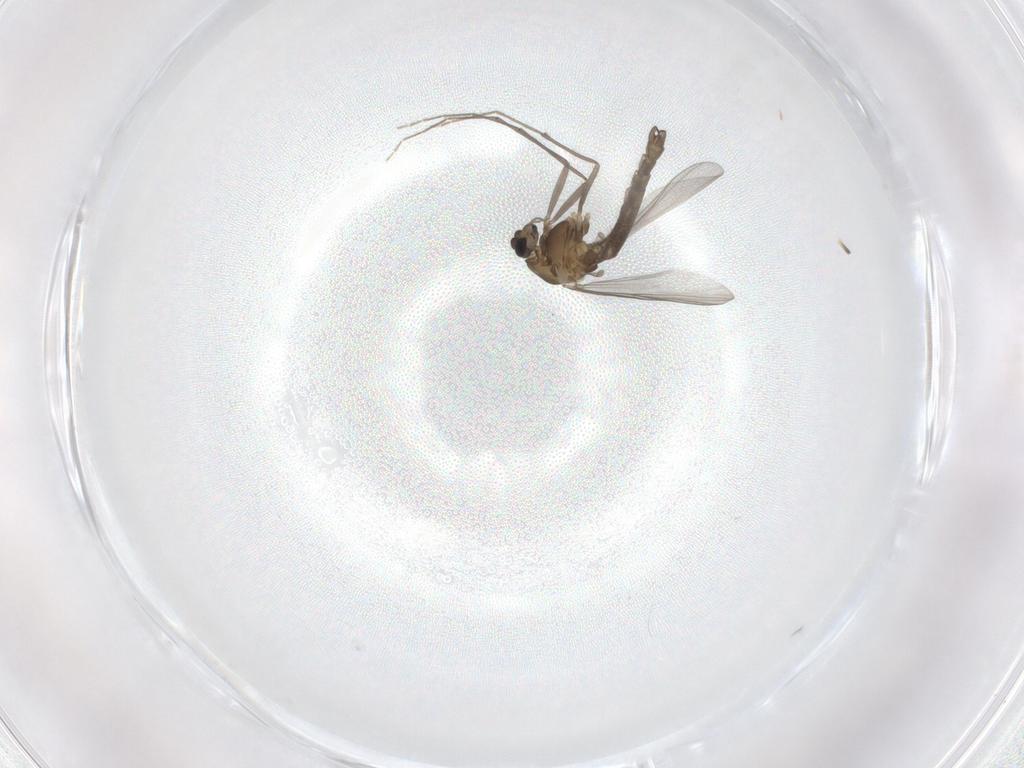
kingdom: Animalia
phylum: Arthropoda
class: Insecta
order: Diptera
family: Chironomidae
